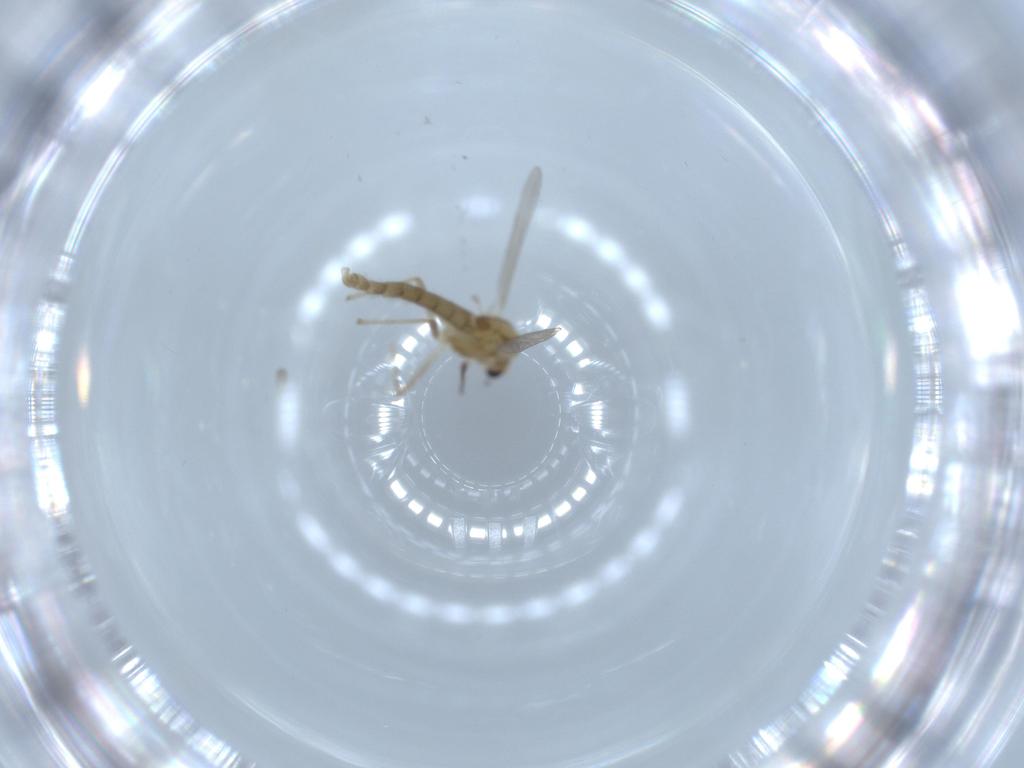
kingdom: Animalia
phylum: Arthropoda
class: Insecta
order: Diptera
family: Chironomidae
